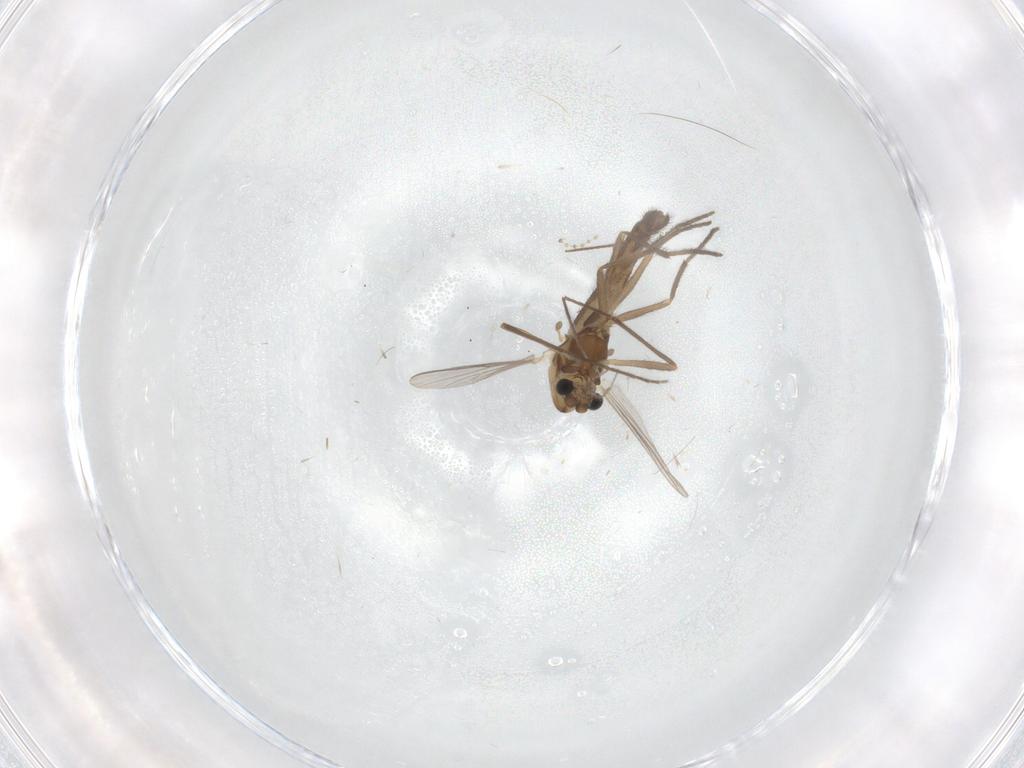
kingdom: Animalia
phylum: Arthropoda
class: Insecta
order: Diptera
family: Chironomidae
